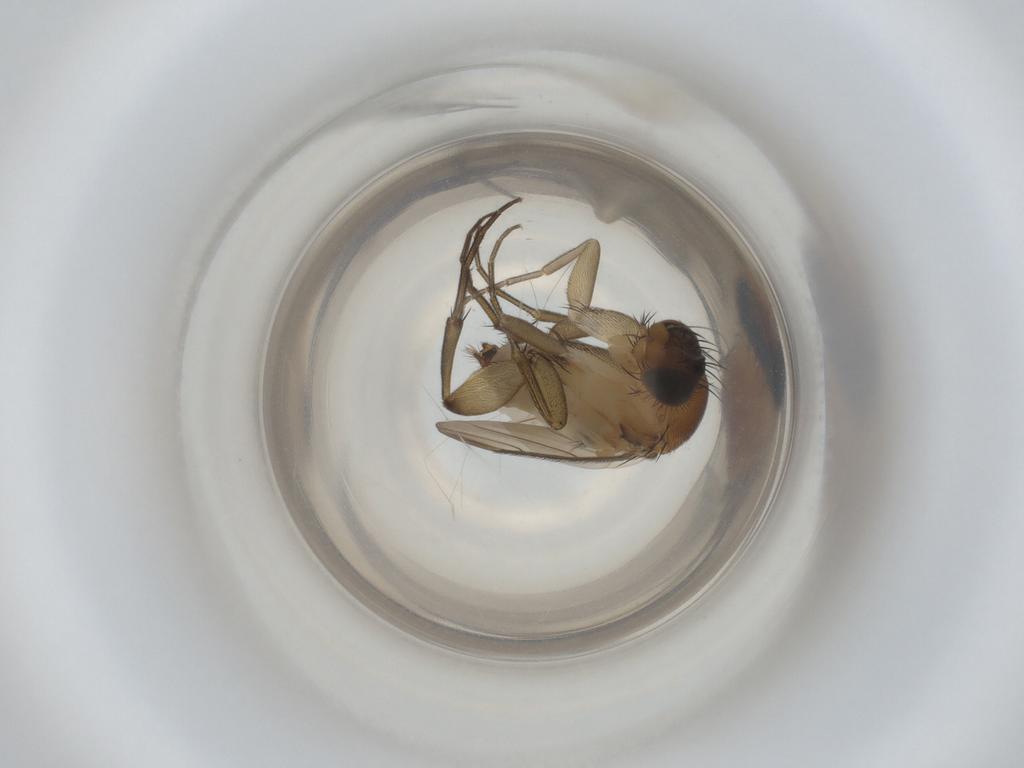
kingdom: Animalia
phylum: Arthropoda
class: Insecta
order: Diptera
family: Phoridae
